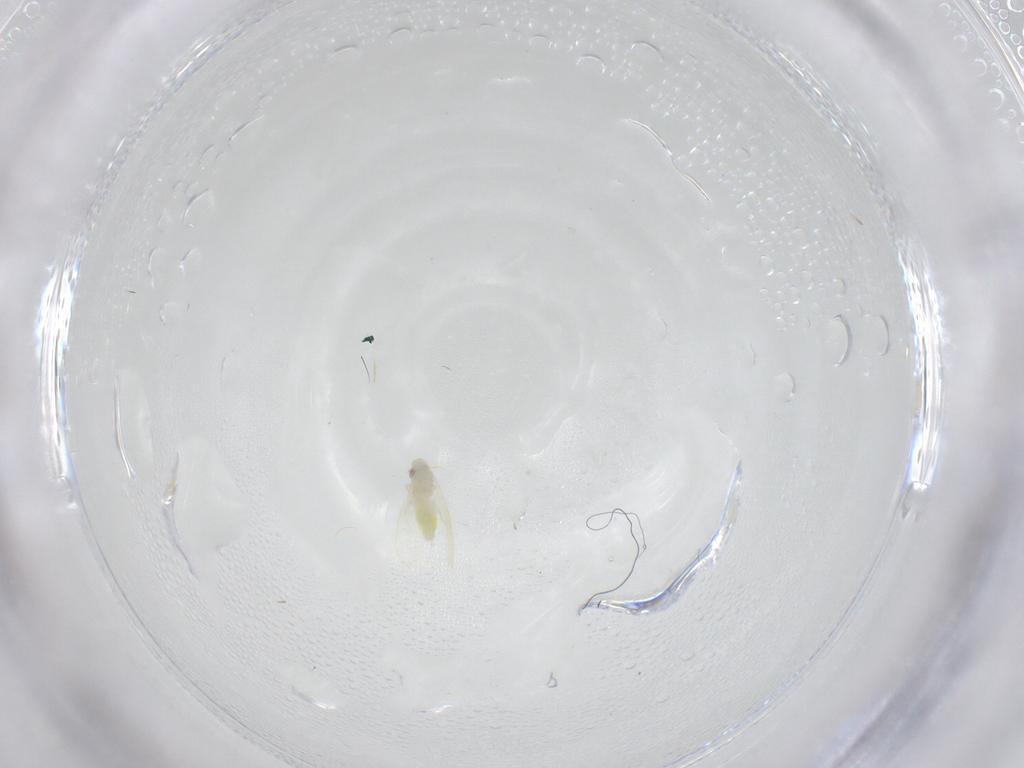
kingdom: Animalia
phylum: Arthropoda
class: Insecta
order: Hemiptera
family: Aleyrodidae
